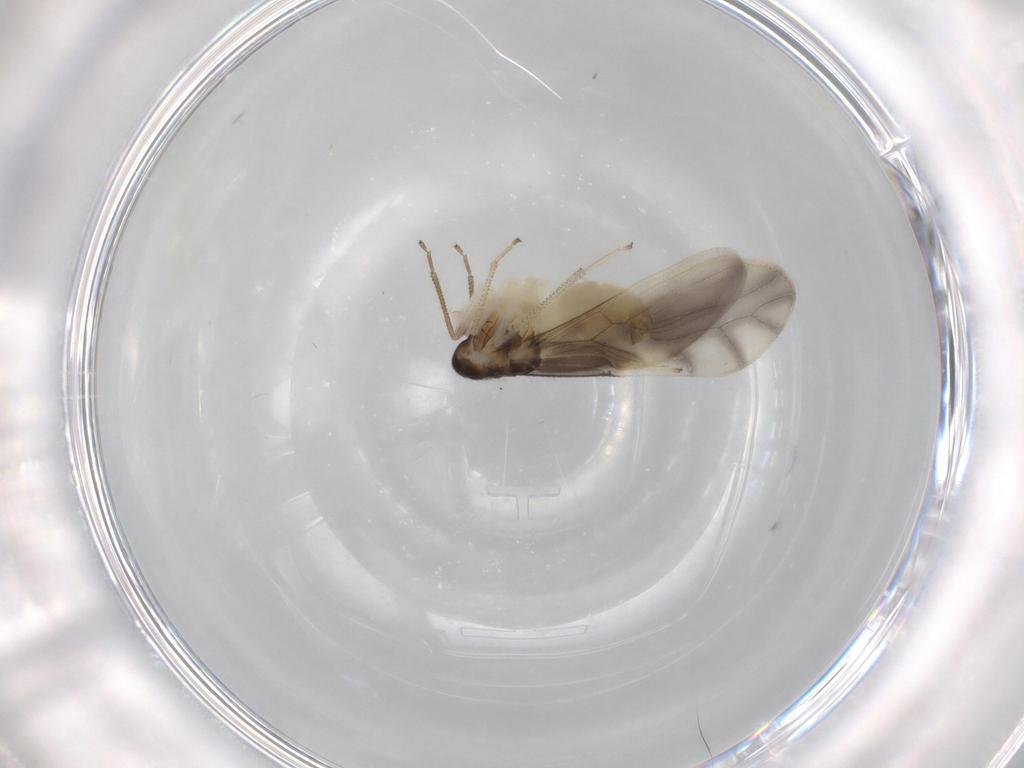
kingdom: Animalia
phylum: Arthropoda
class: Insecta
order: Psocodea
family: Caeciliusidae
